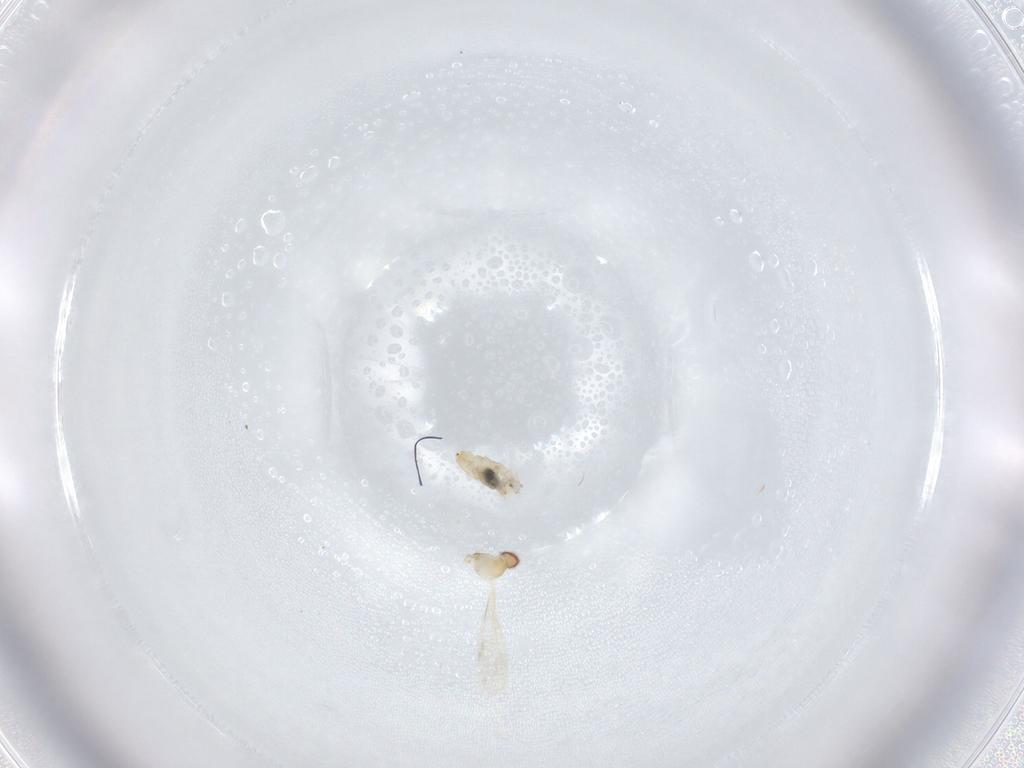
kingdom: Animalia
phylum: Arthropoda
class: Insecta
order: Diptera
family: Cecidomyiidae
